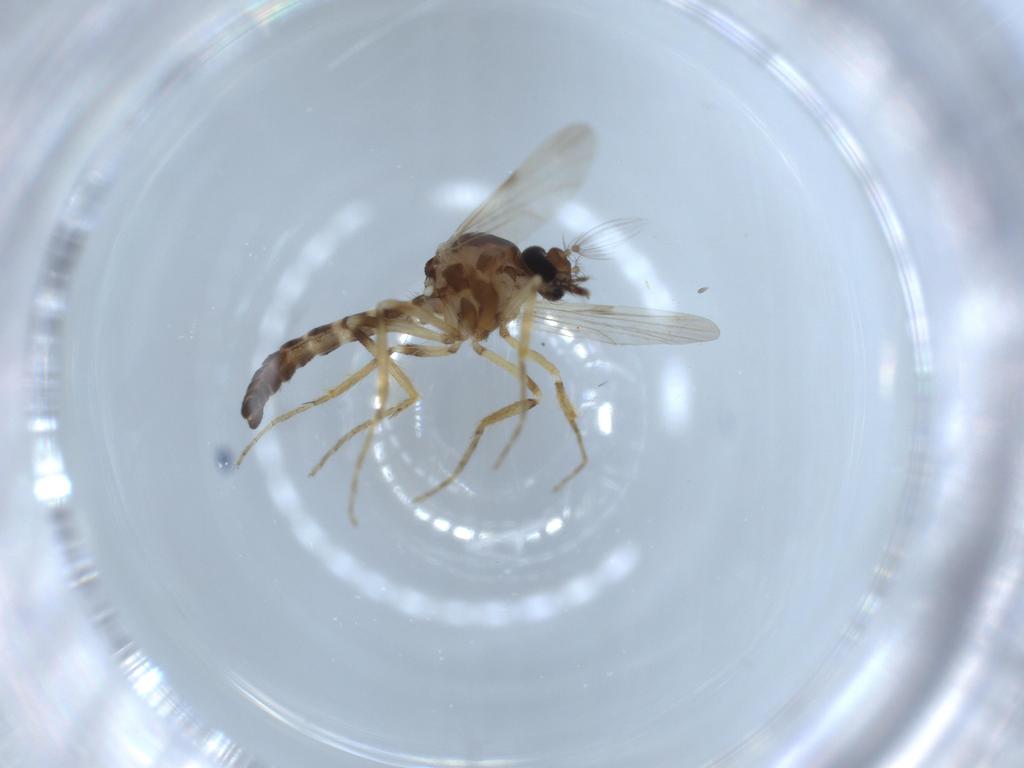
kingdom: Animalia
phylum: Arthropoda
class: Insecta
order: Diptera
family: Ceratopogonidae
